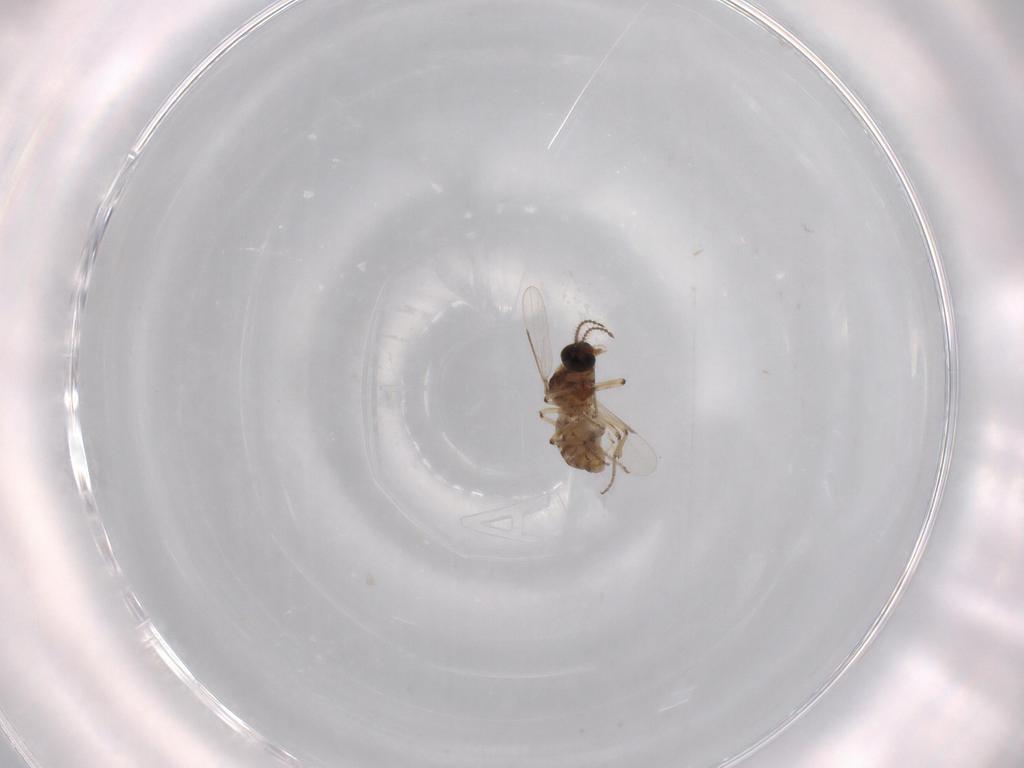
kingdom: Animalia
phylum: Arthropoda
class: Insecta
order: Diptera
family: Ceratopogonidae
